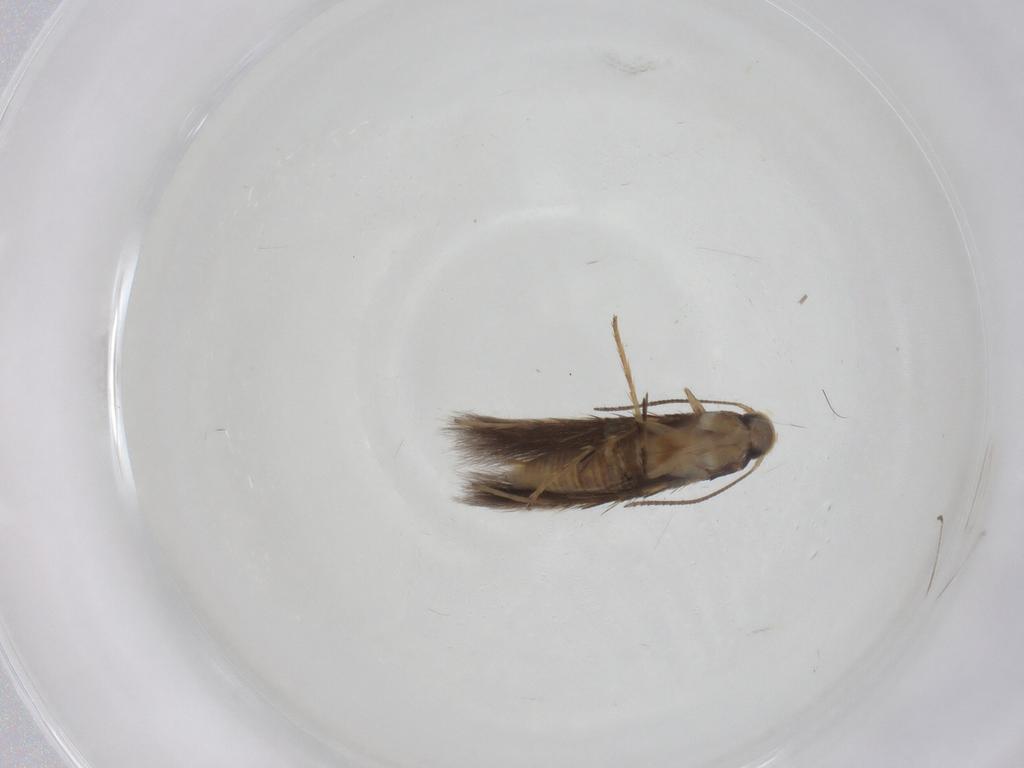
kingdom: Animalia
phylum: Arthropoda
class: Insecta
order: Lepidoptera
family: Pyralidae
